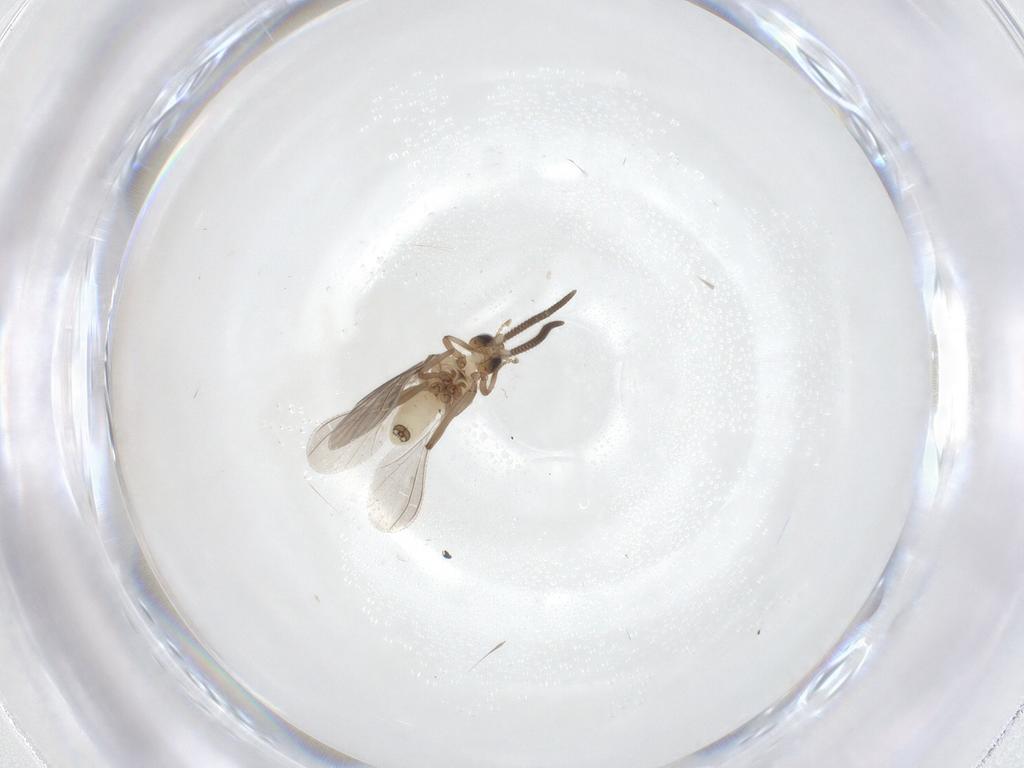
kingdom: Animalia
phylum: Arthropoda
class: Insecta
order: Neuroptera
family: Coniopterygidae
